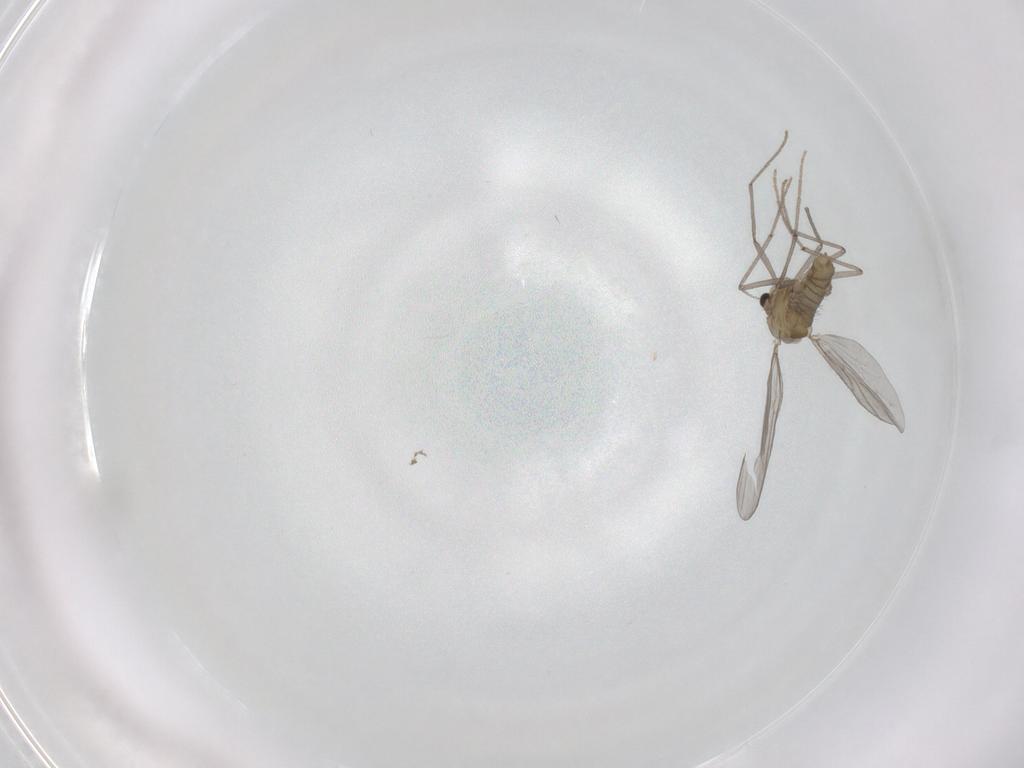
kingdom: Animalia
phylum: Arthropoda
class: Insecta
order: Diptera
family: Chironomidae
